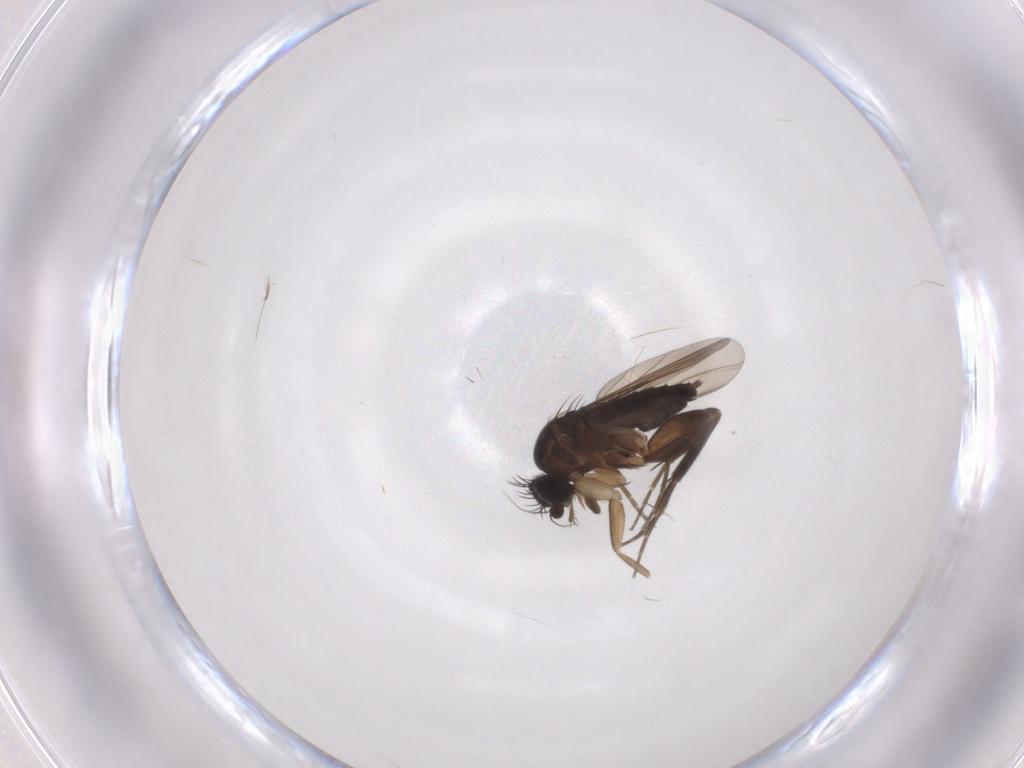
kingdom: Animalia
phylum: Arthropoda
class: Insecta
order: Diptera
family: Phoridae
